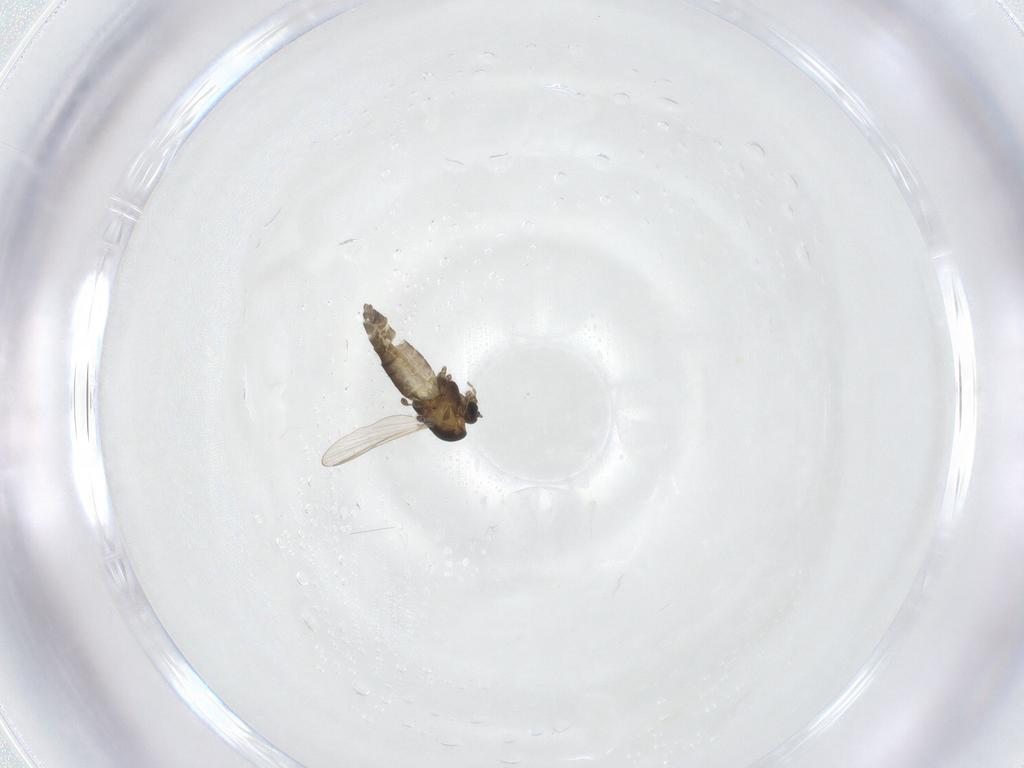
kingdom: Animalia
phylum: Arthropoda
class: Insecta
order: Diptera
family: Chironomidae
